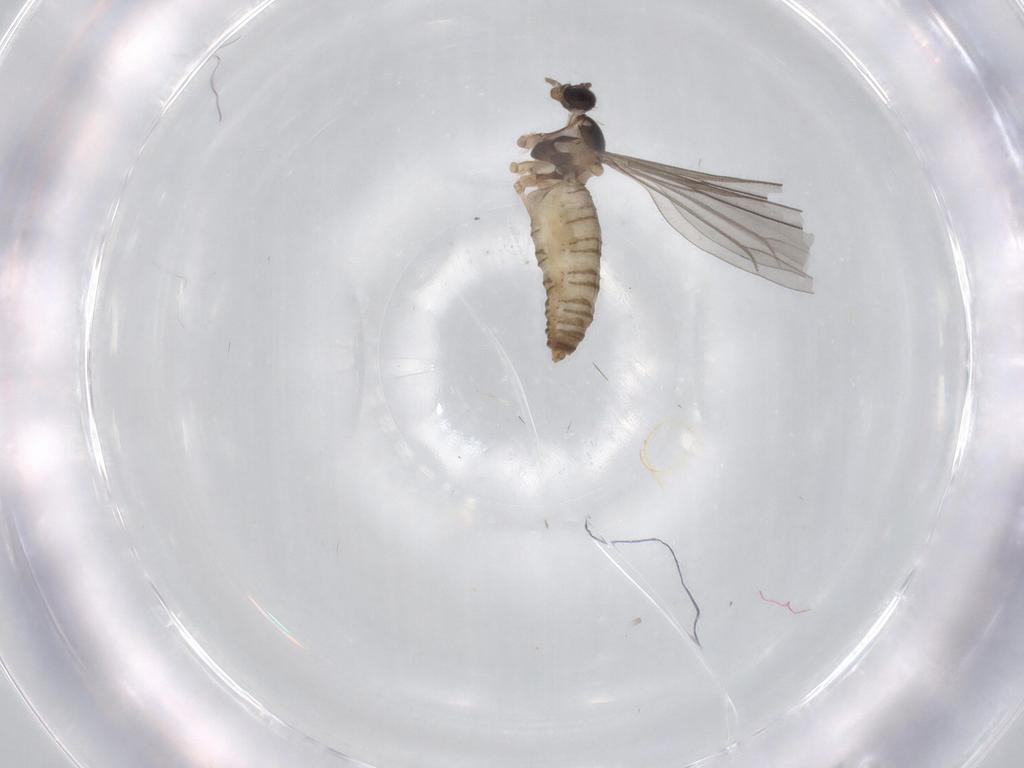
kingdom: Animalia
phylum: Arthropoda
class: Insecta
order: Diptera
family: Cecidomyiidae
